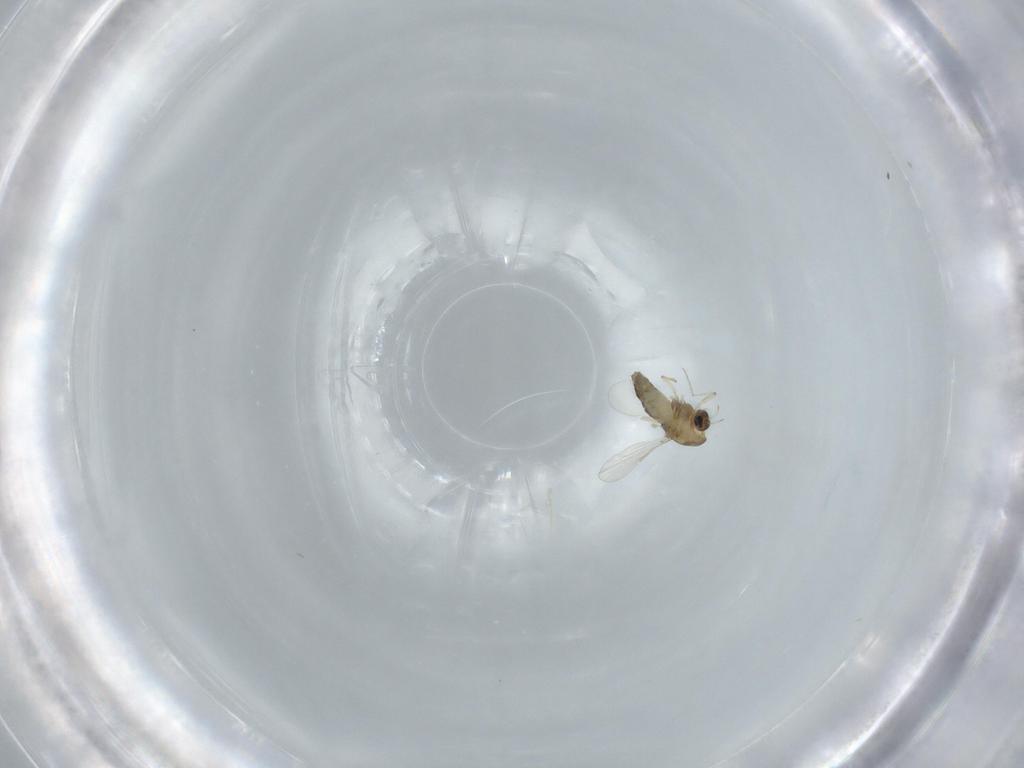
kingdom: Animalia
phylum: Arthropoda
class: Insecta
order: Diptera
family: Chironomidae
